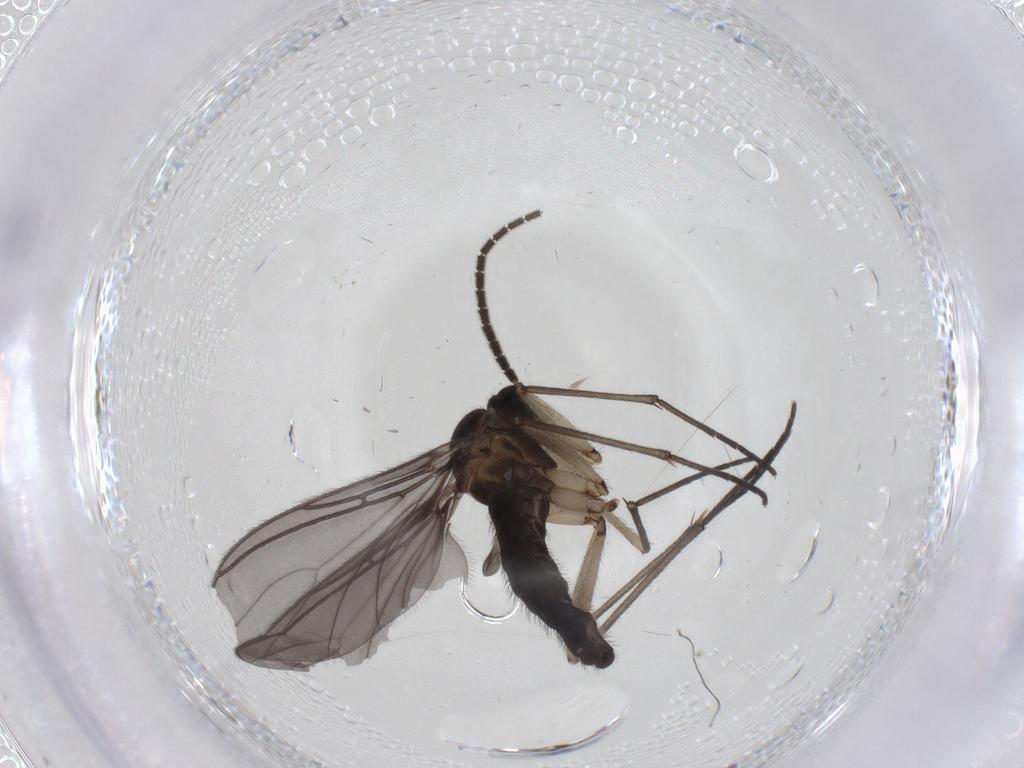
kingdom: Animalia
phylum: Arthropoda
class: Insecta
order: Diptera
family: Sciaridae
